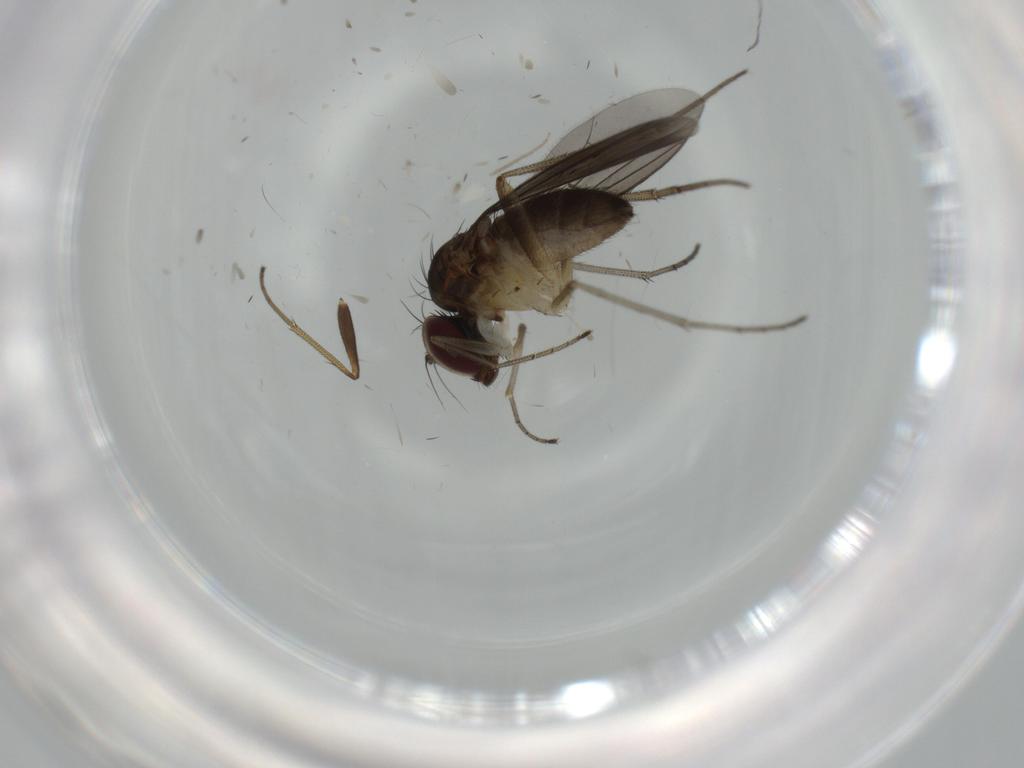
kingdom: Animalia
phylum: Arthropoda
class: Insecta
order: Diptera
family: Dolichopodidae
